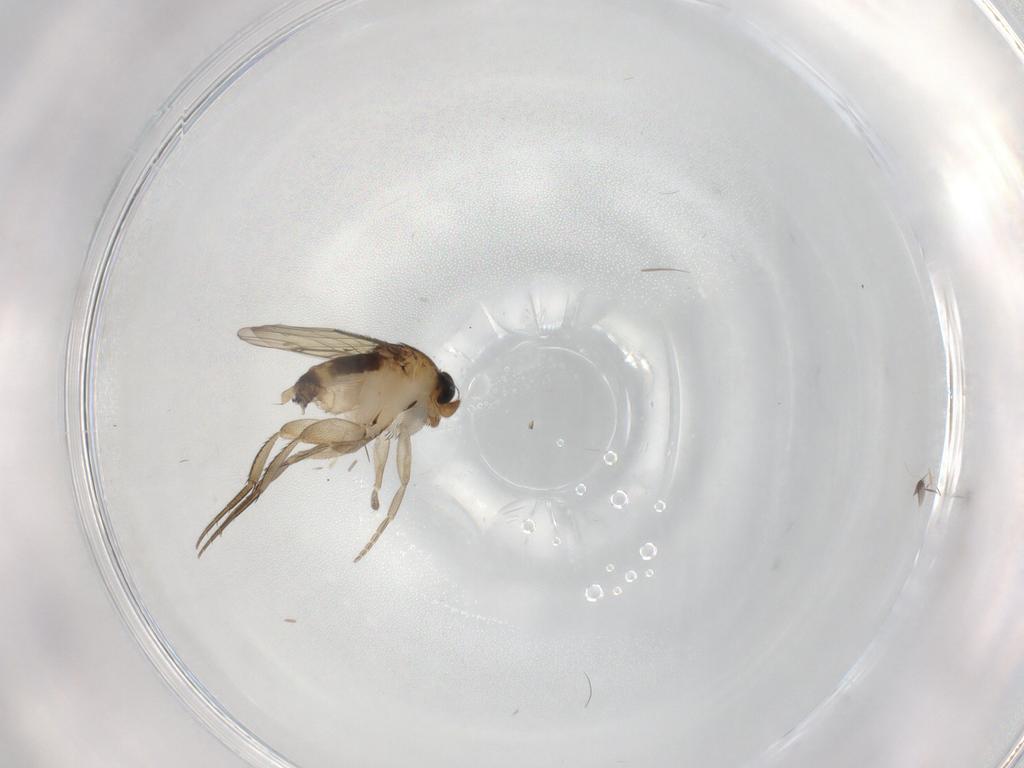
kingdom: Animalia
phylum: Arthropoda
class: Insecta
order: Diptera
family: Phoridae
